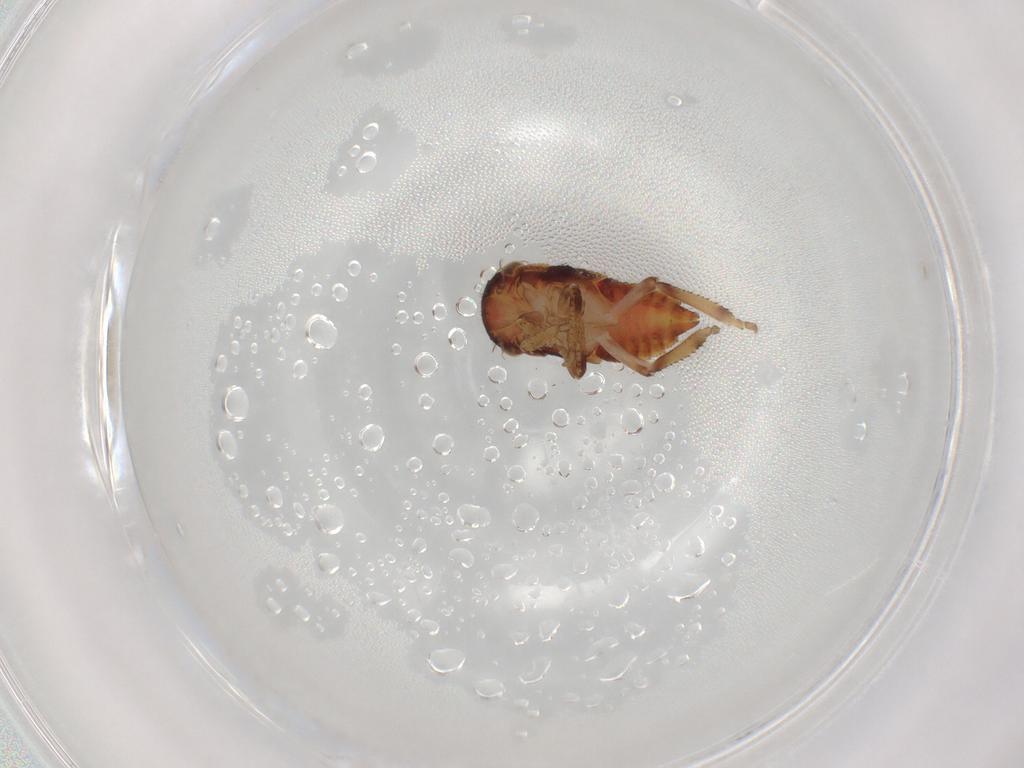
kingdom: Animalia
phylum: Arthropoda
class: Insecta
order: Hemiptera
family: Cicadellidae
